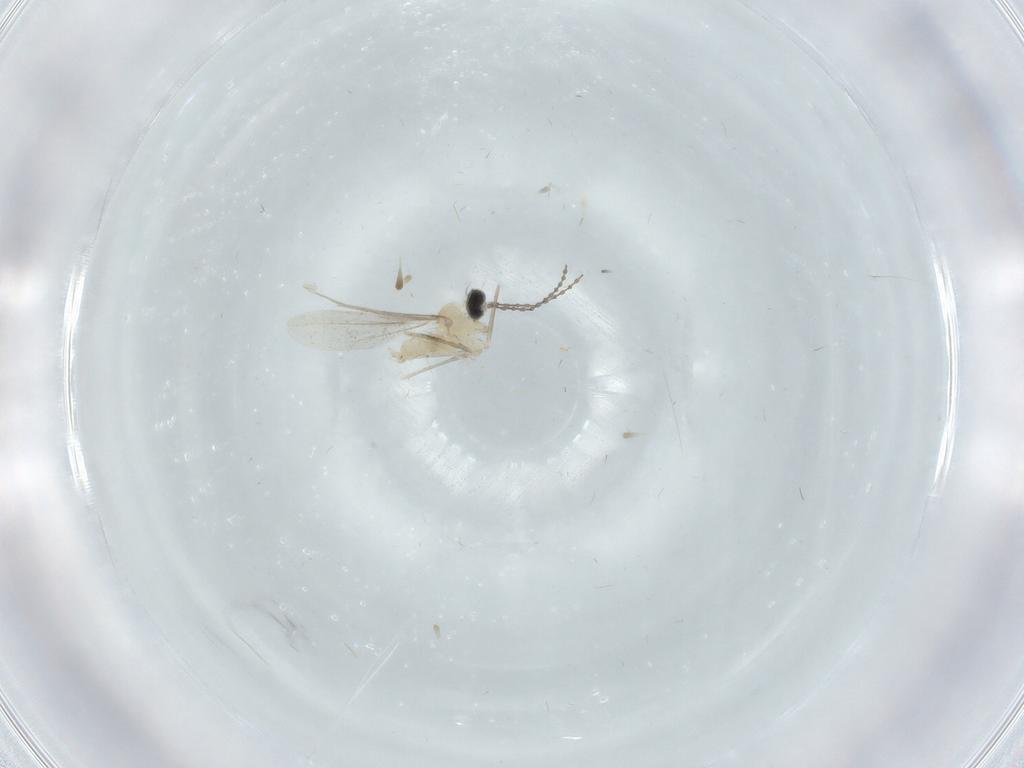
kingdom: Animalia
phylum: Arthropoda
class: Insecta
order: Diptera
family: Cecidomyiidae
